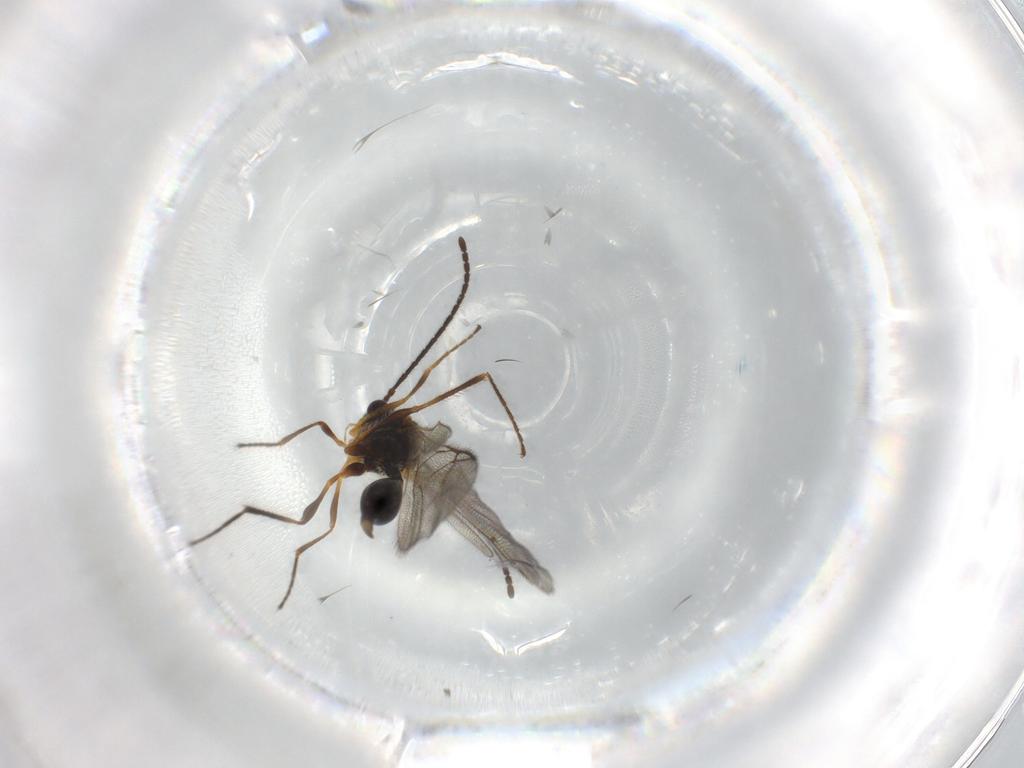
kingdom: Animalia
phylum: Arthropoda
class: Insecta
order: Hymenoptera
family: Diapriidae
